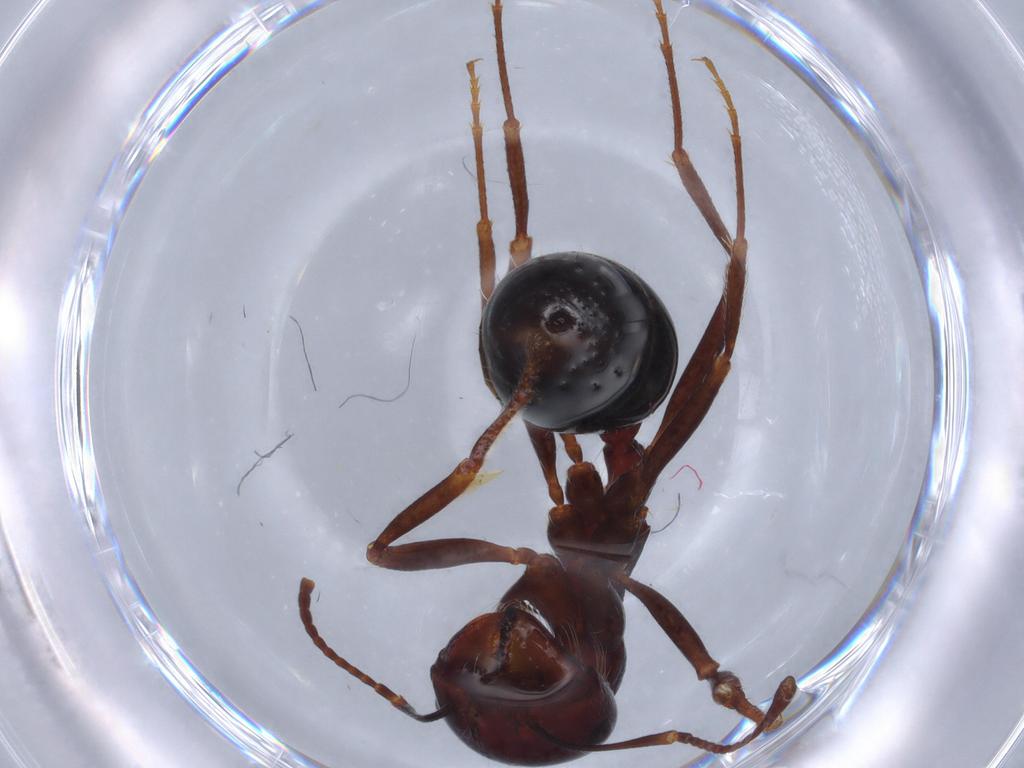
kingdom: Animalia
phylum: Arthropoda
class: Insecta
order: Hymenoptera
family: Formicidae
